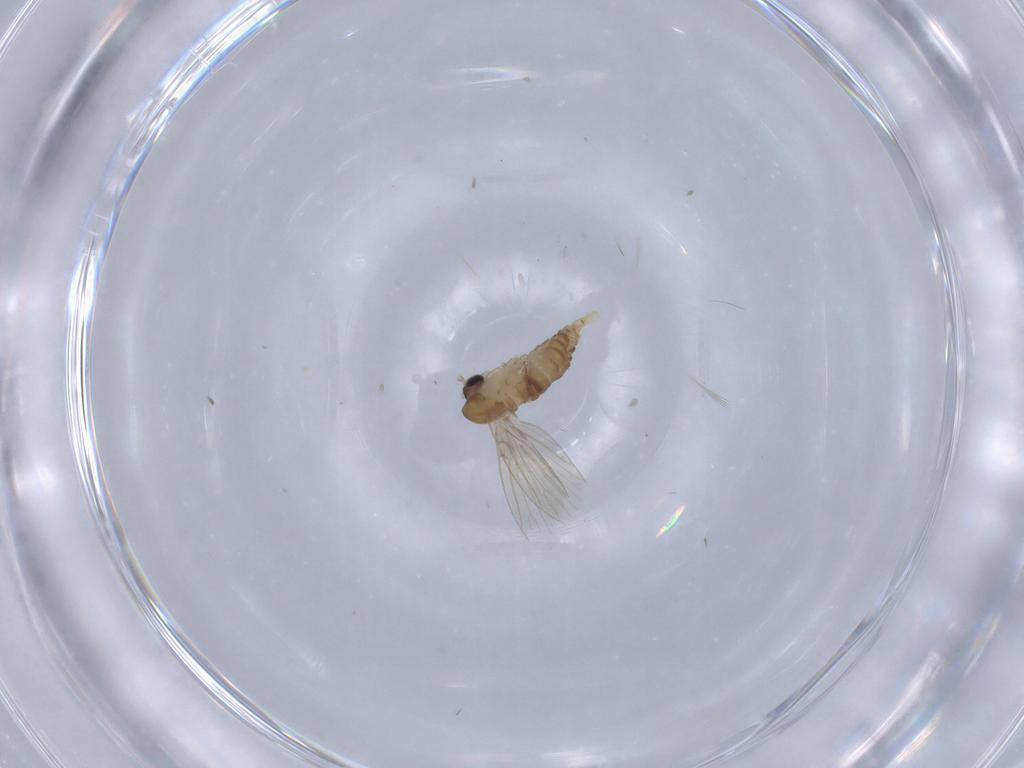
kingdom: Animalia
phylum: Arthropoda
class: Insecta
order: Diptera
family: Cecidomyiidae
